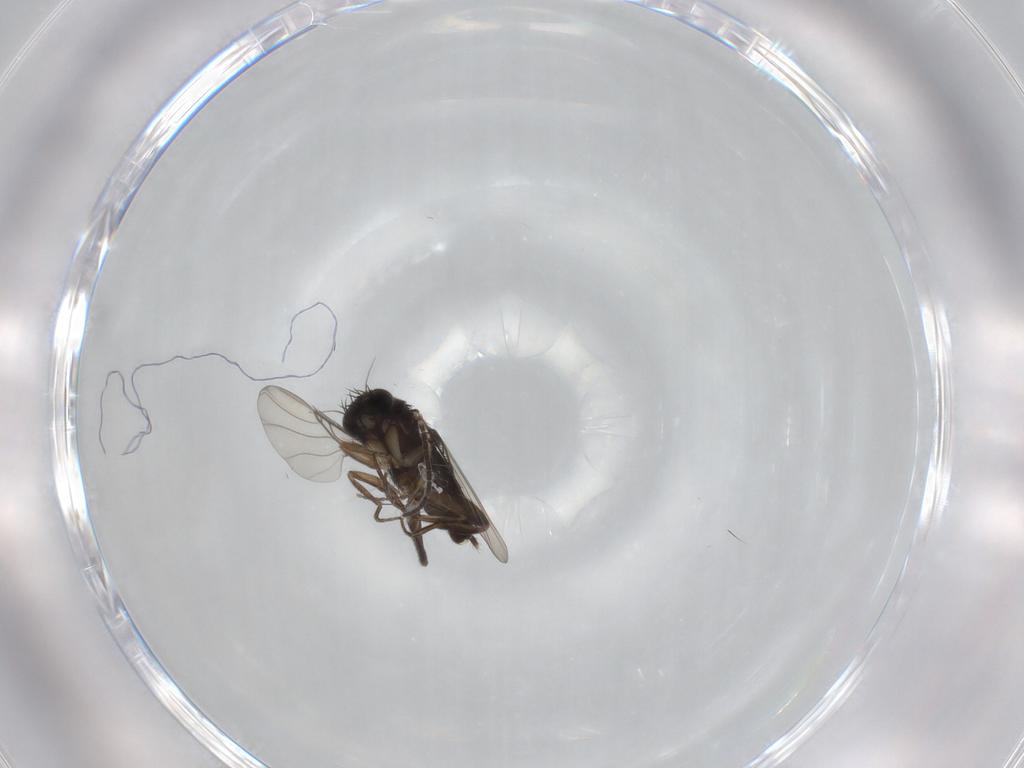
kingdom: Animalia
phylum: Arthropoda
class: Insecta
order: Diptera
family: Sciaridae
